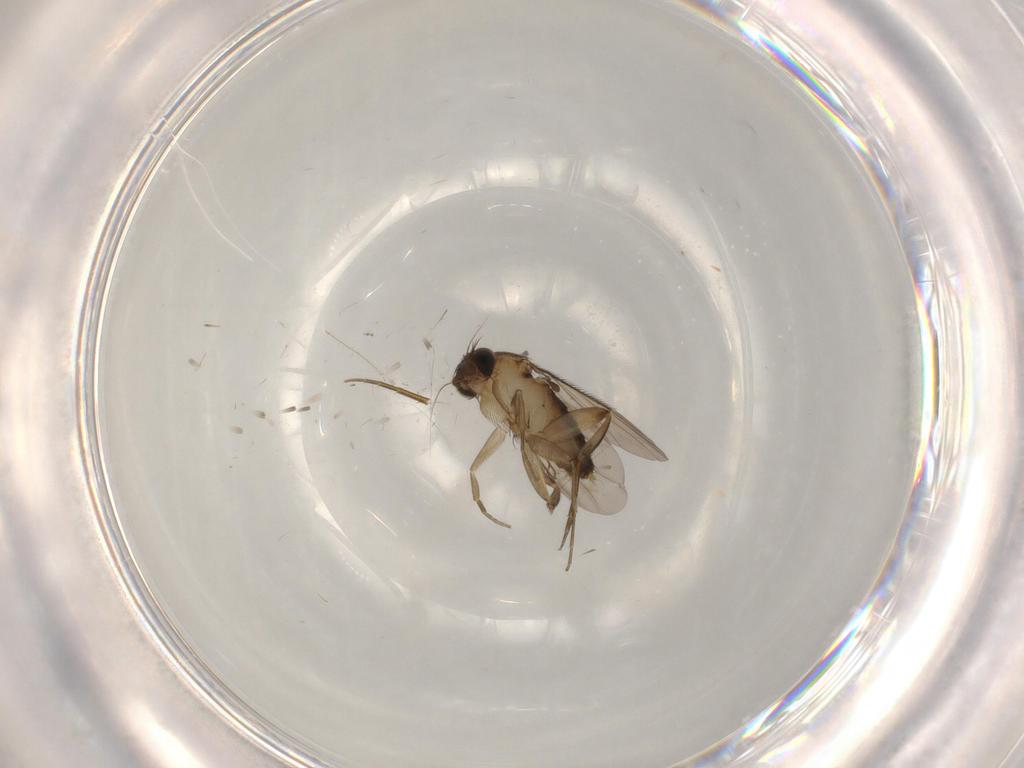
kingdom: Animalia
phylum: Arthropoda
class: Insecta
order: Diptera
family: Phoridae
